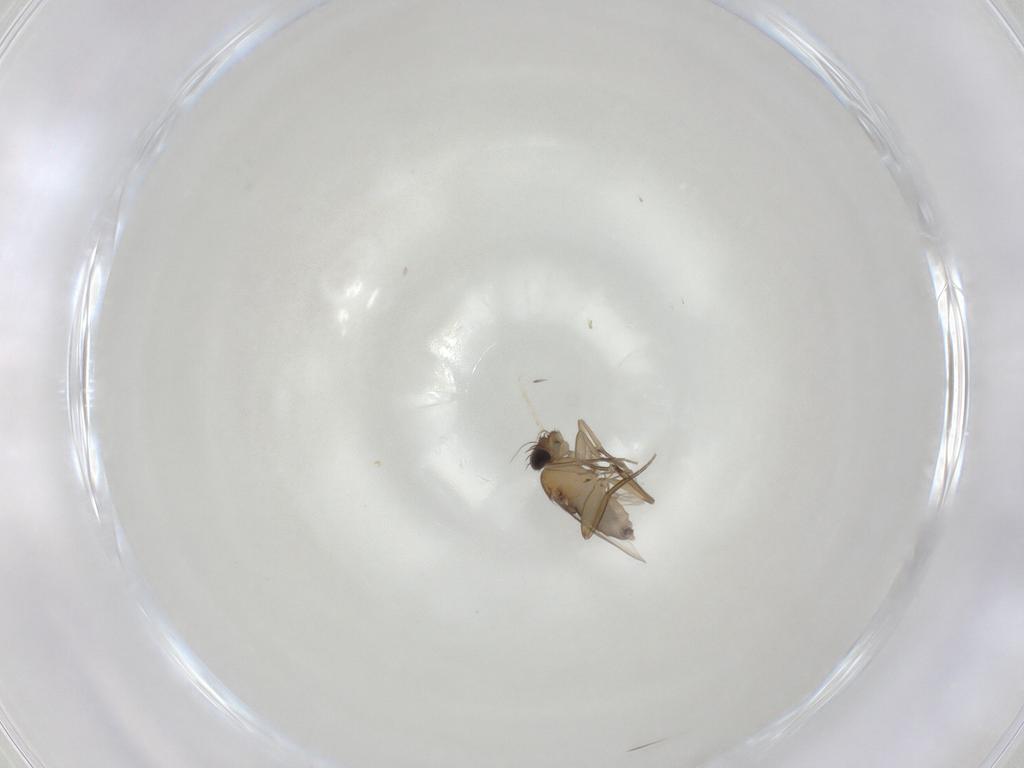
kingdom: Animalia
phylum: Arthropoda
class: Insecta
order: Diptera
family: Phoridae
